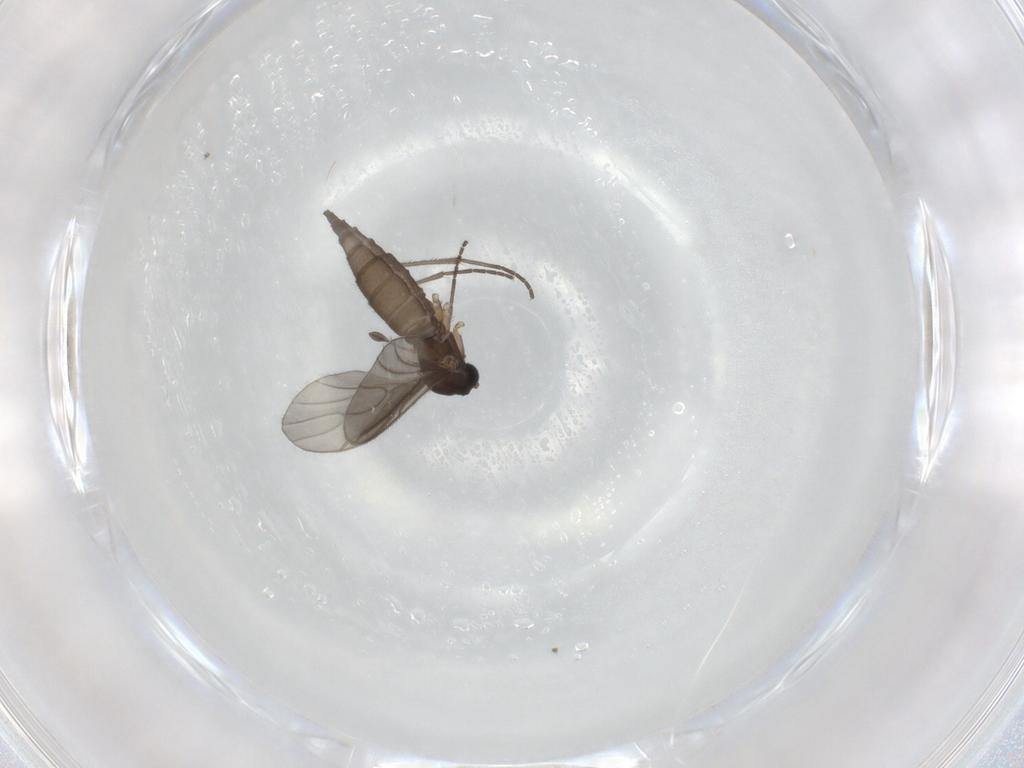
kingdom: Animalia
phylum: Arthropoda
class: Insecta
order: Diptera
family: Sciaridae
